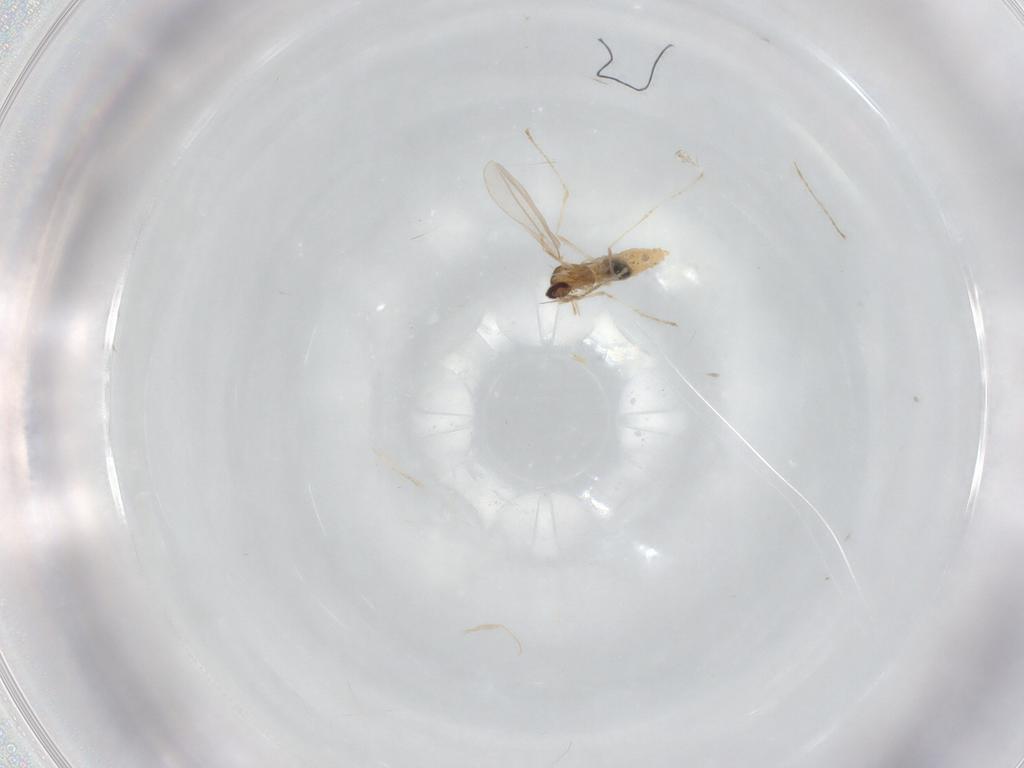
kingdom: Animalia
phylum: Arthropoda
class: Insecta
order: Diptera
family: Cecidomyiidae
